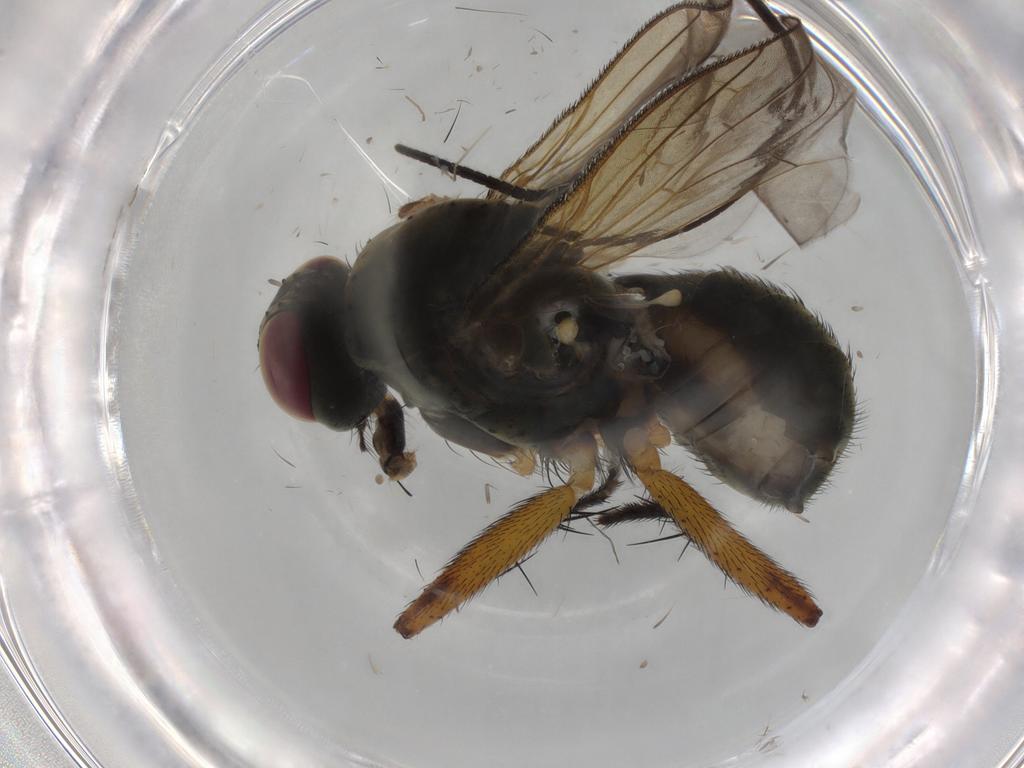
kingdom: Animalia
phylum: Arthropoda
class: Insecta
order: Diptera
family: Muscidae
